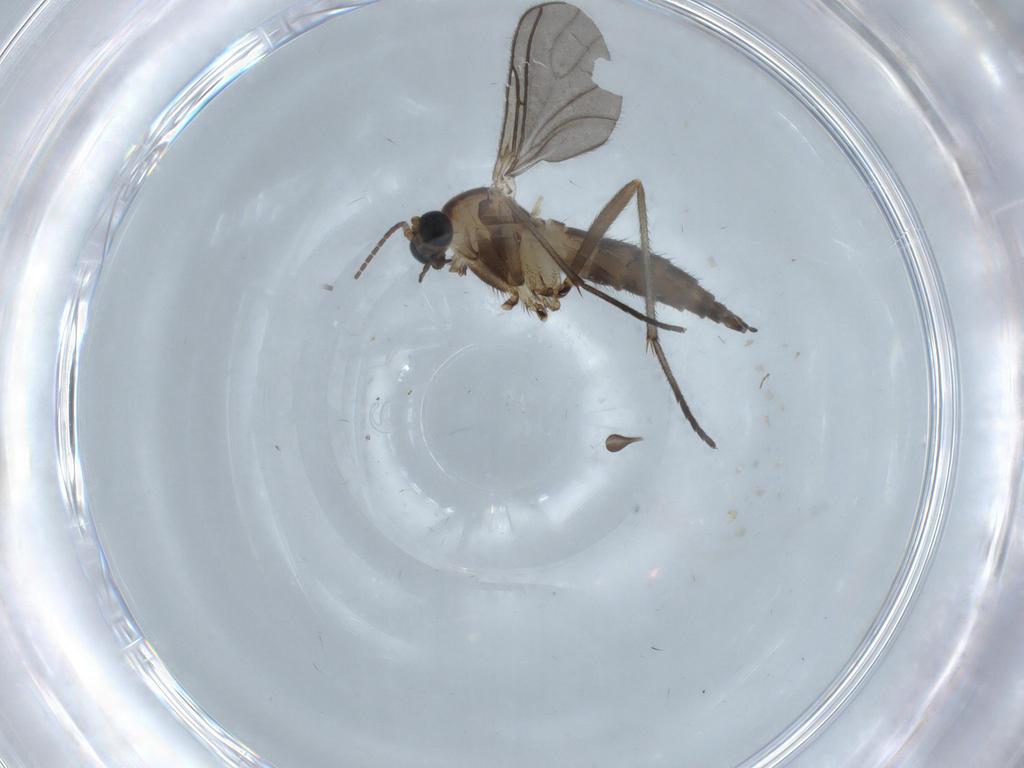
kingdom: Animalia
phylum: Arthropoda
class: Insecta
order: Diptera
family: Sciaridae
